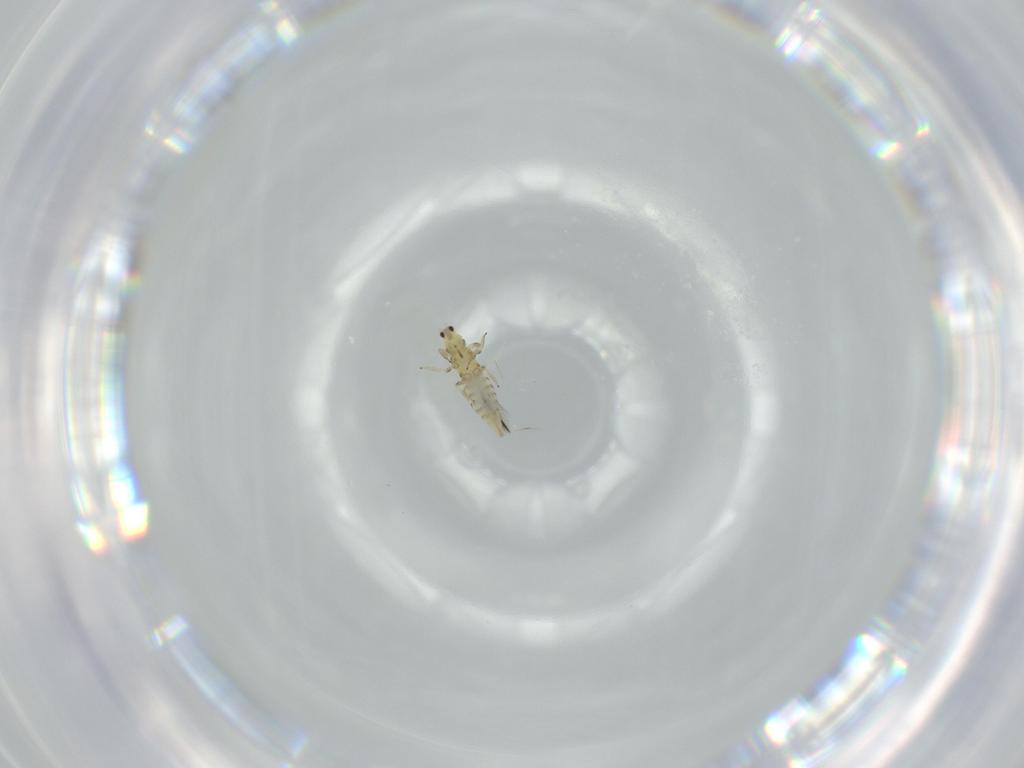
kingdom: Animalia
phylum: Arthropoda
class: Insecta
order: Thysanoptera
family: Thripidae
